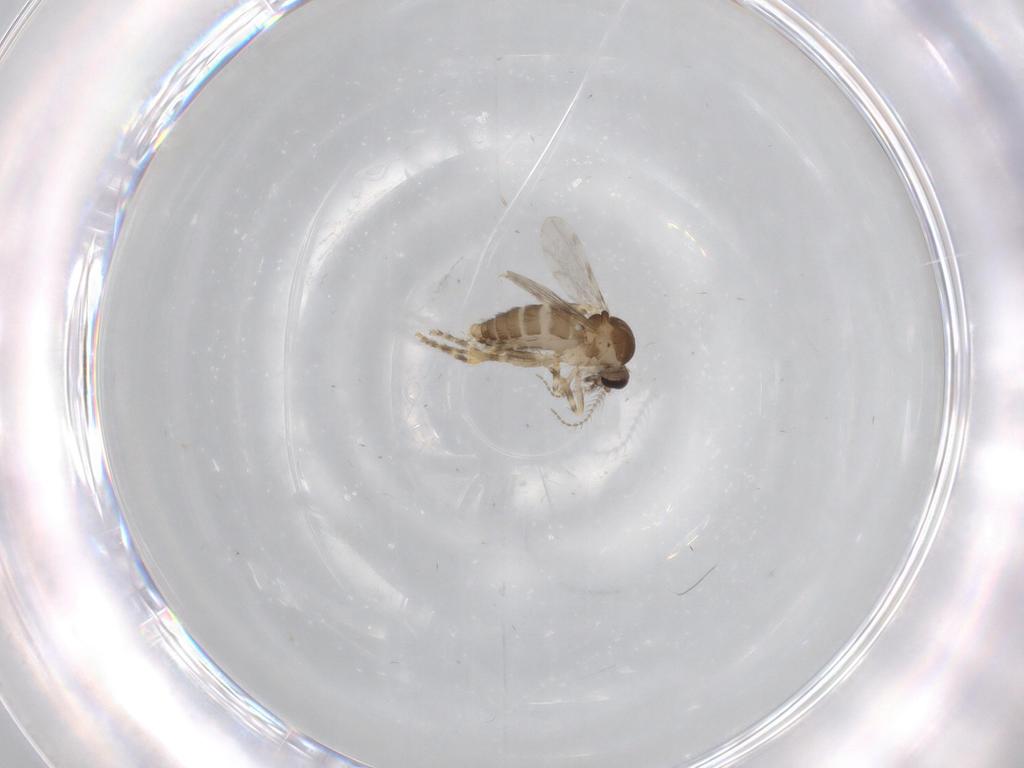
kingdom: Animalia
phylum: Arthropoda
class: Insecta
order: Diptera
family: Ceratopogonidae
